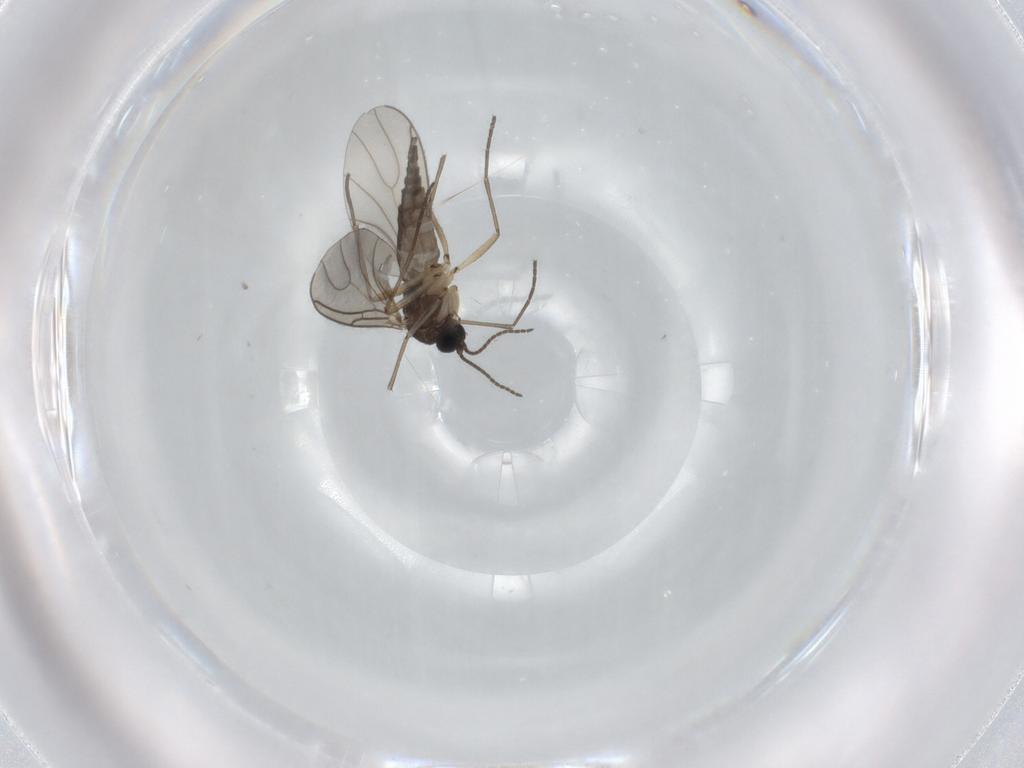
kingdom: Animalia
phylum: Arthropoda
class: Insecta
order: Diptera
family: Sciaridae
